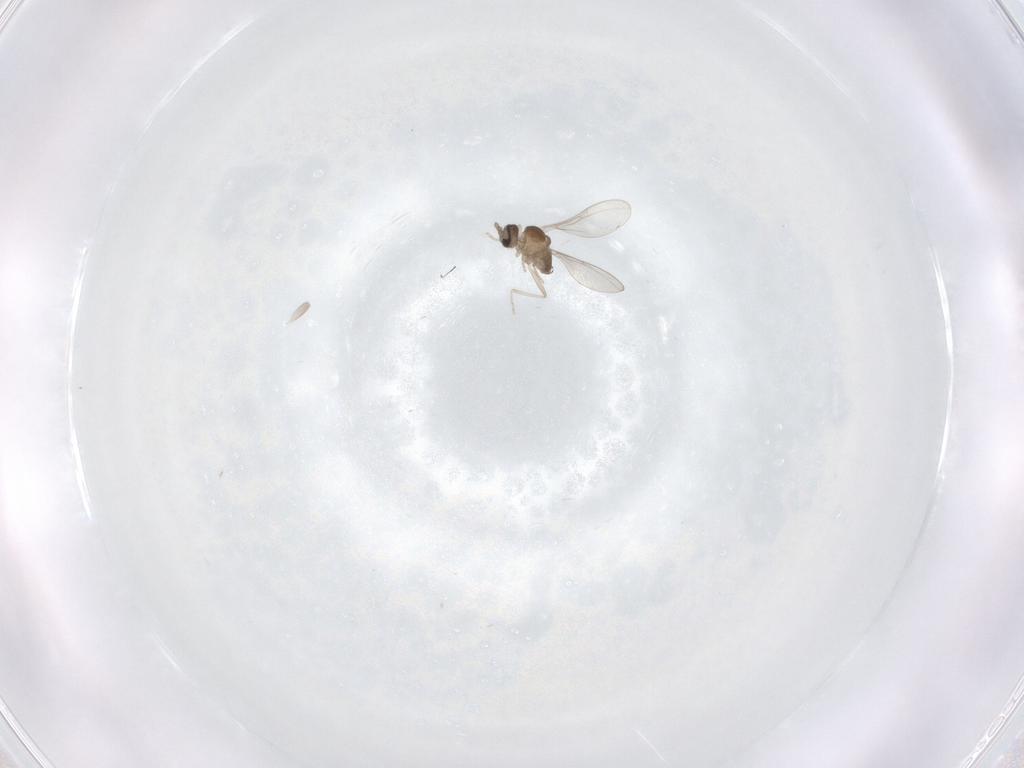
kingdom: Animalia
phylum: Arthropoda
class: Insecta
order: Diptera
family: Cecidomyiidae
